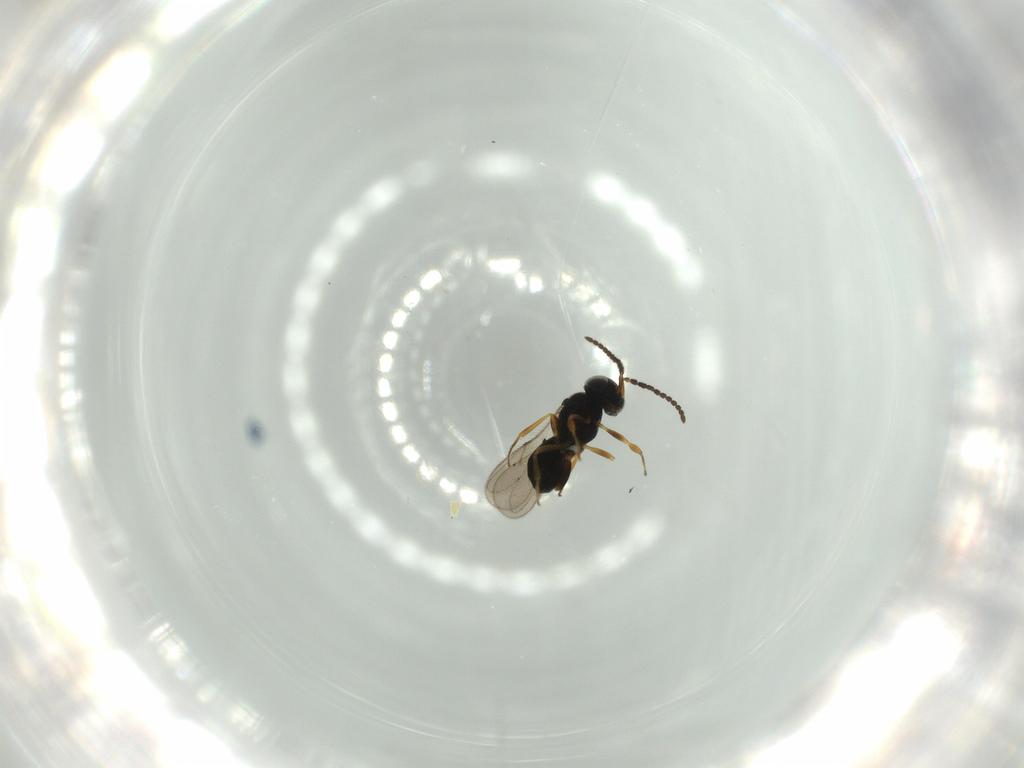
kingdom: Animalia
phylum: Arthropoda
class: Insecta
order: Hymenoptera
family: Scelionidae
